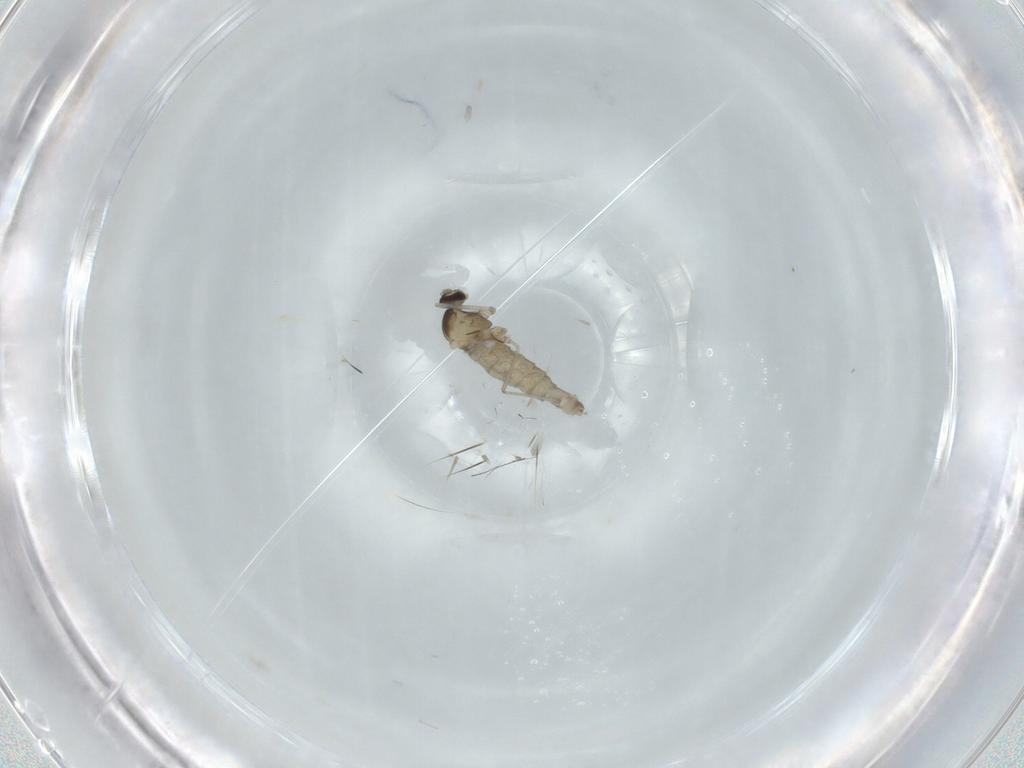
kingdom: Animalia
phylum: Arthropoda
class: Insecta
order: Diptera
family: Cecidomyiidae
